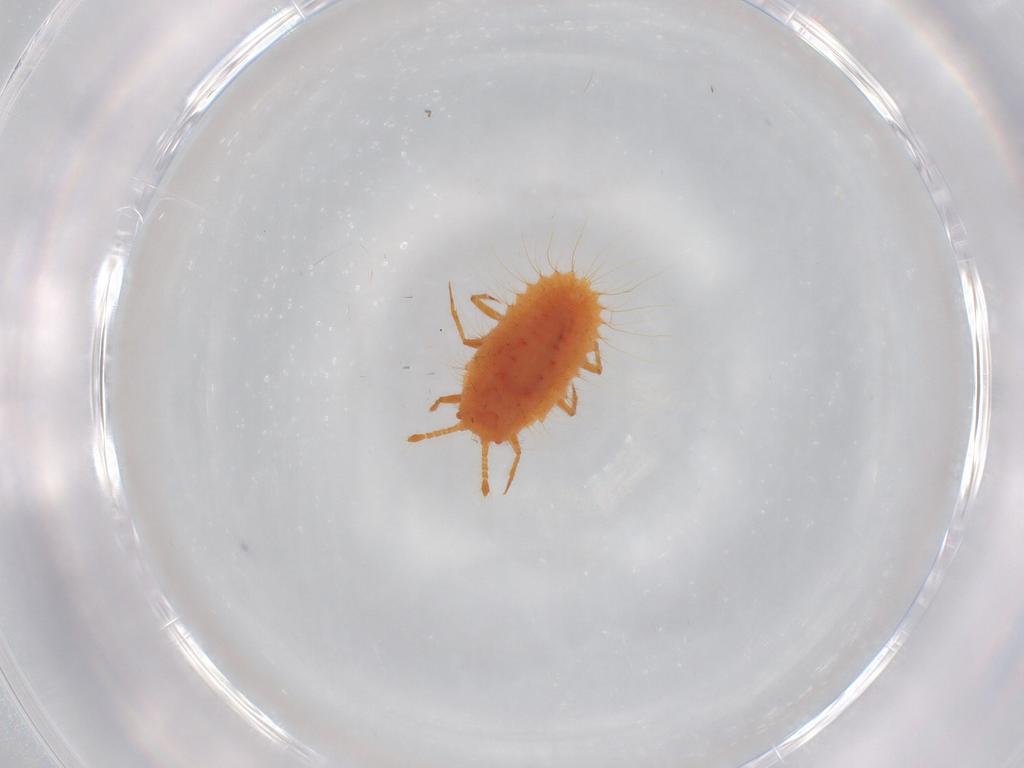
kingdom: Animalia
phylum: Arthropoda
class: Insecta
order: Hemiptera
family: Coccoidea_incertae_sedis
